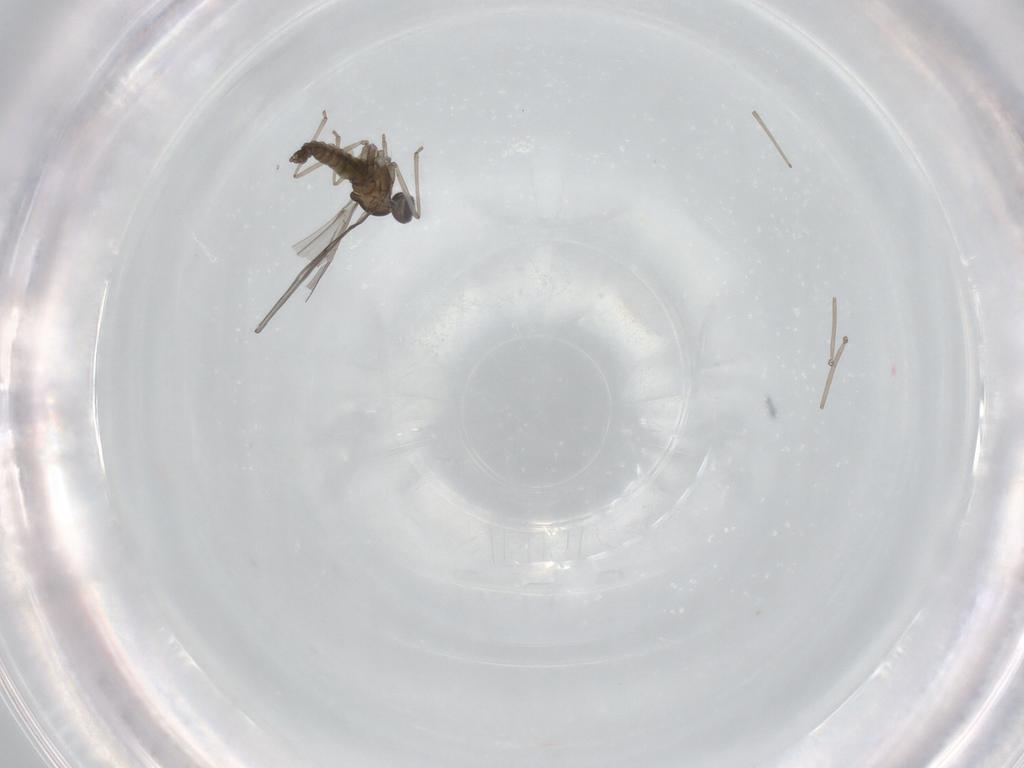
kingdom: Animalia
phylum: Arthropoda
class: Insecta
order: Diptera
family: Cecidomyiidae
